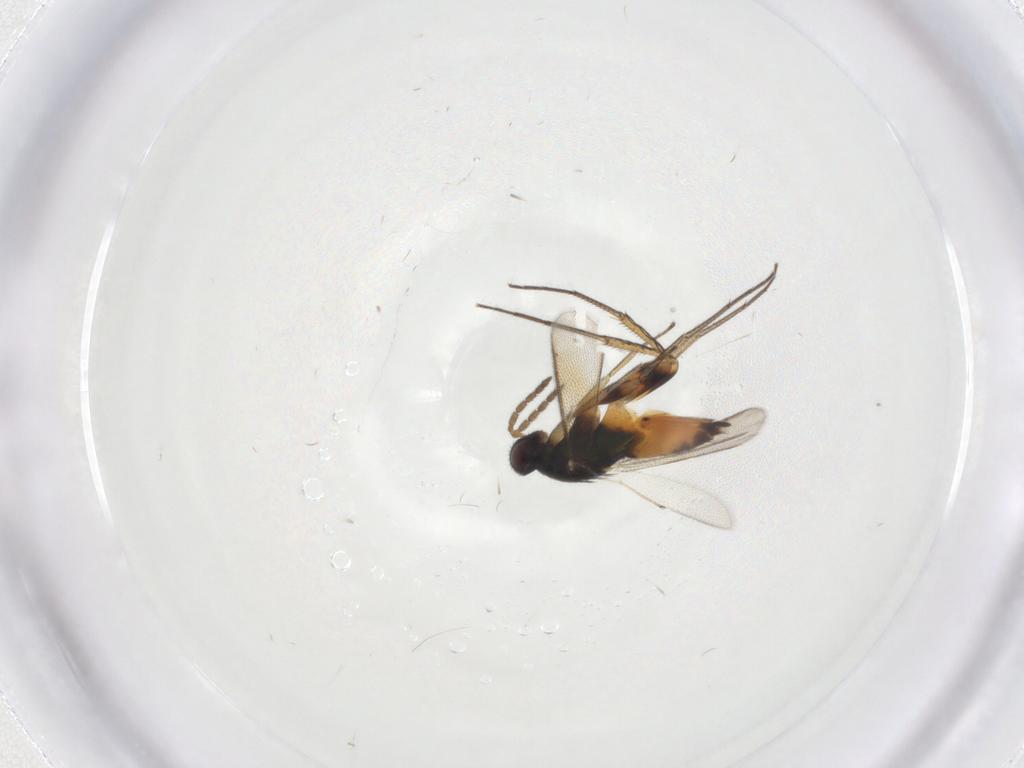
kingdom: Animalia
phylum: Arthropoda
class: Insecta
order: Hymenoptera
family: Eulophidae
